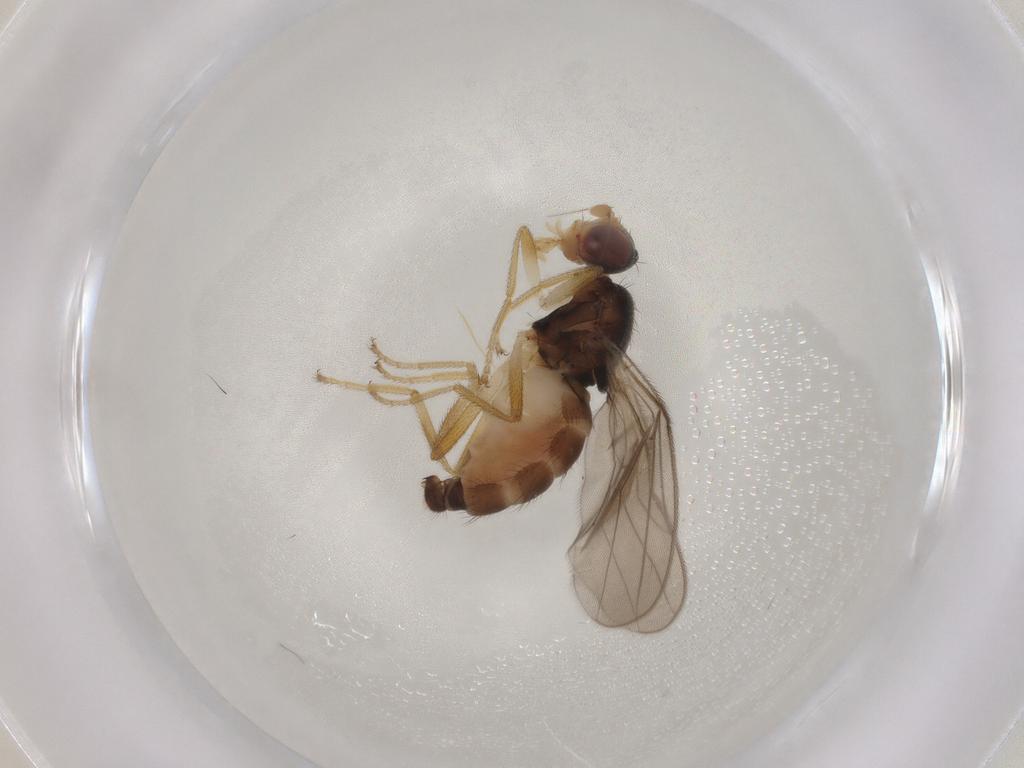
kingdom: Animalia
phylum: Arthropoda
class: Insecta
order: Diptera
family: Chloropidae
